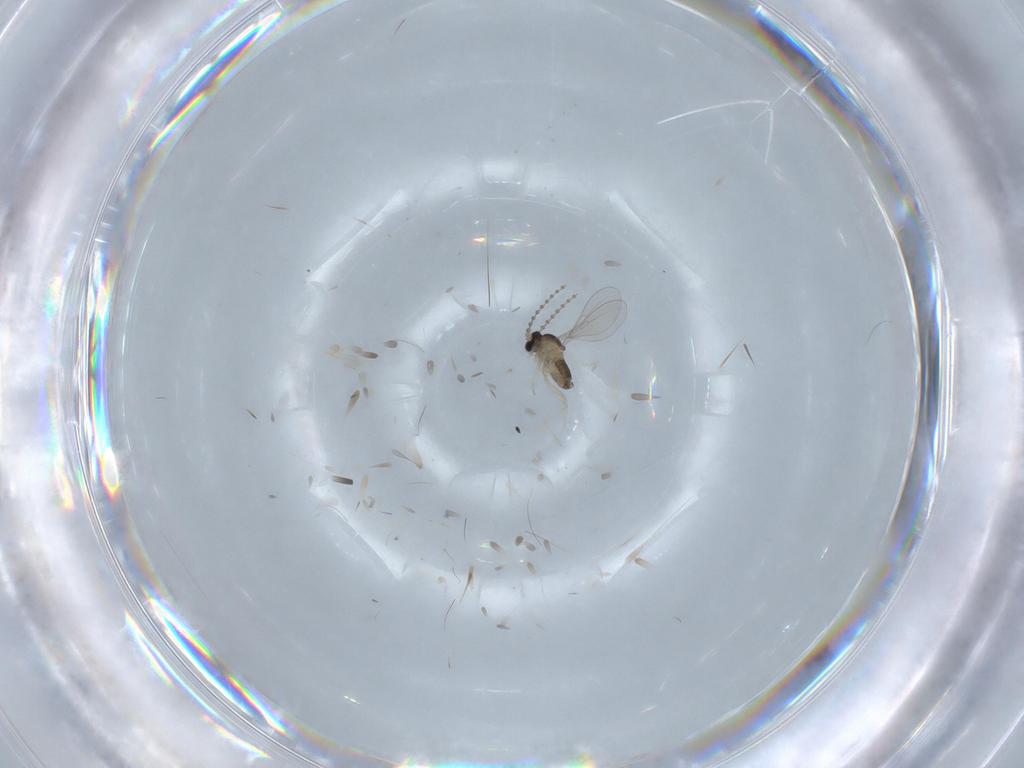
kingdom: Animalia
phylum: Arthropoda
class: Insecta
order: Diptera
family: Cecidomyiidae
